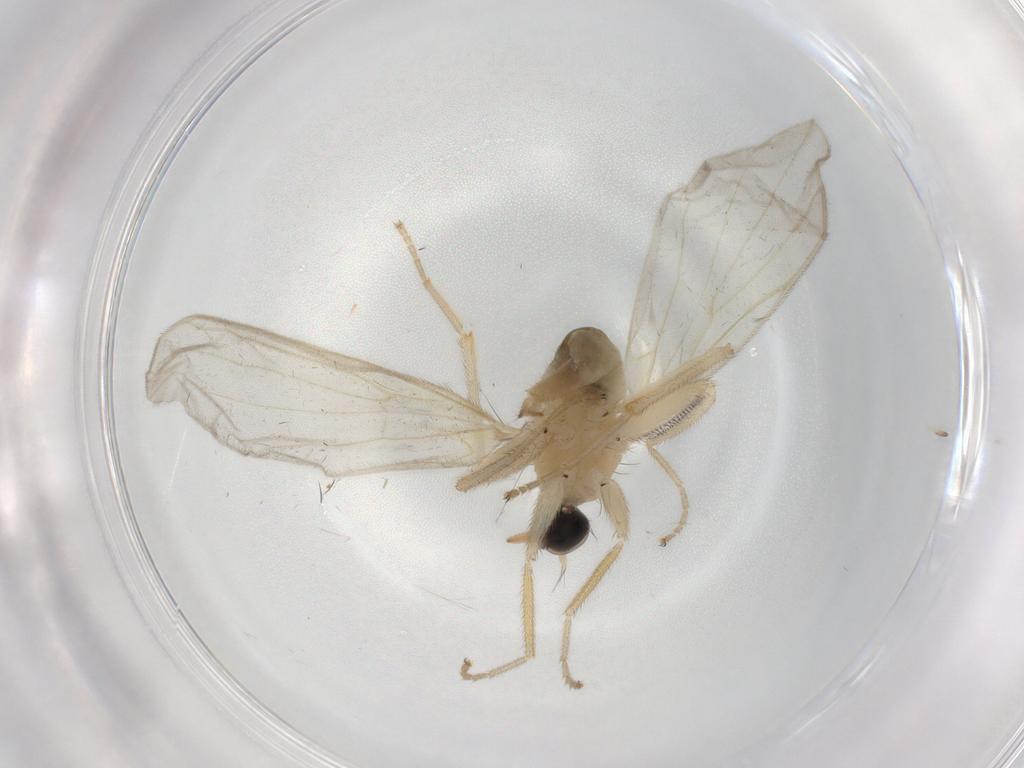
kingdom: Animalia
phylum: Arthropoda
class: Insecta
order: Diptera
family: Hybotidae
